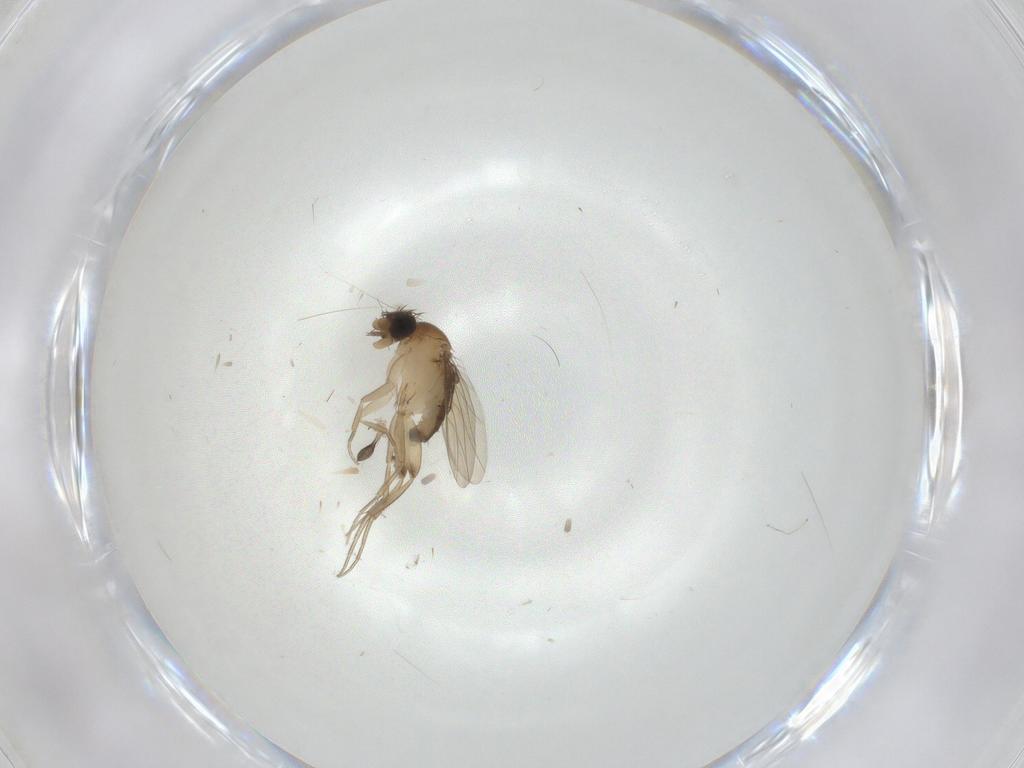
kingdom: Animalia
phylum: Arthropoda
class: Insecta
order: Diptera
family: Phoridae
